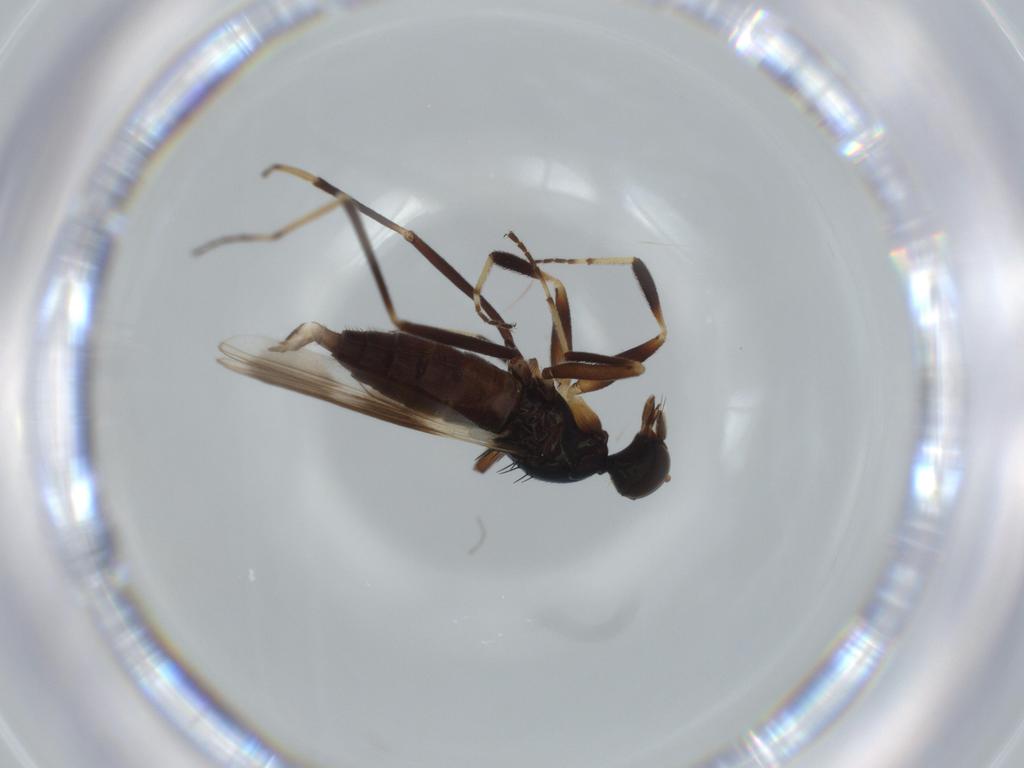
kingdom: Animalia
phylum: Arthropoda
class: Insecta
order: Diptera
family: Hybotidae
